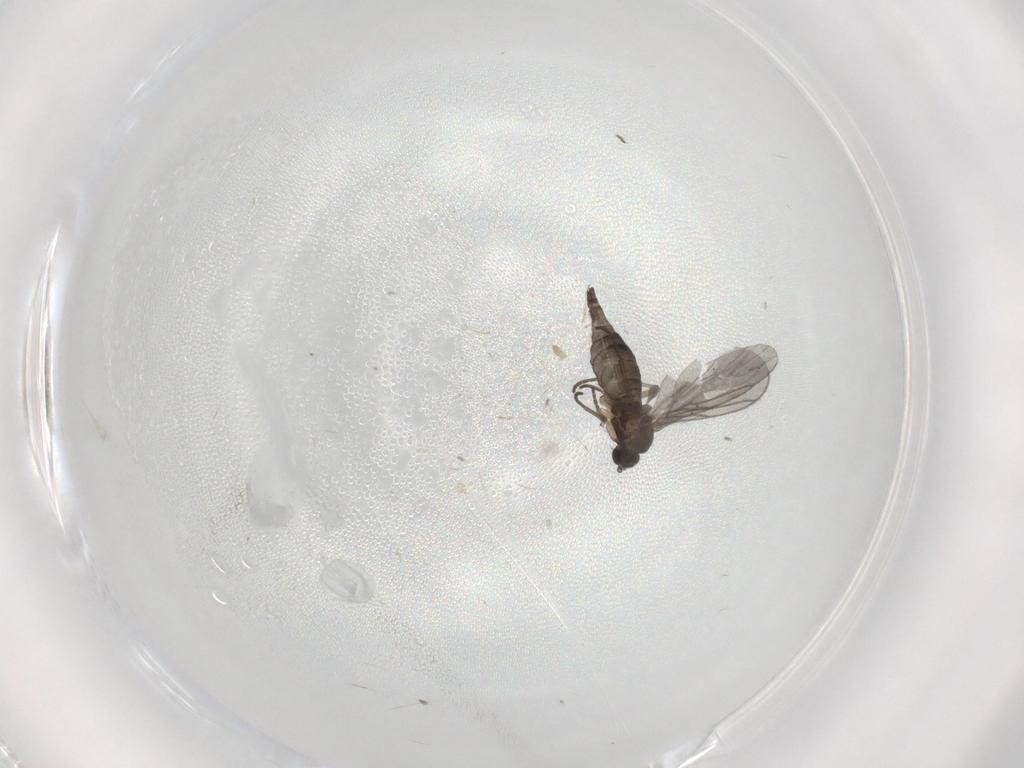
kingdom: Animalia
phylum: Arthropoda
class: Insecta
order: Diptera
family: Sciaridae
